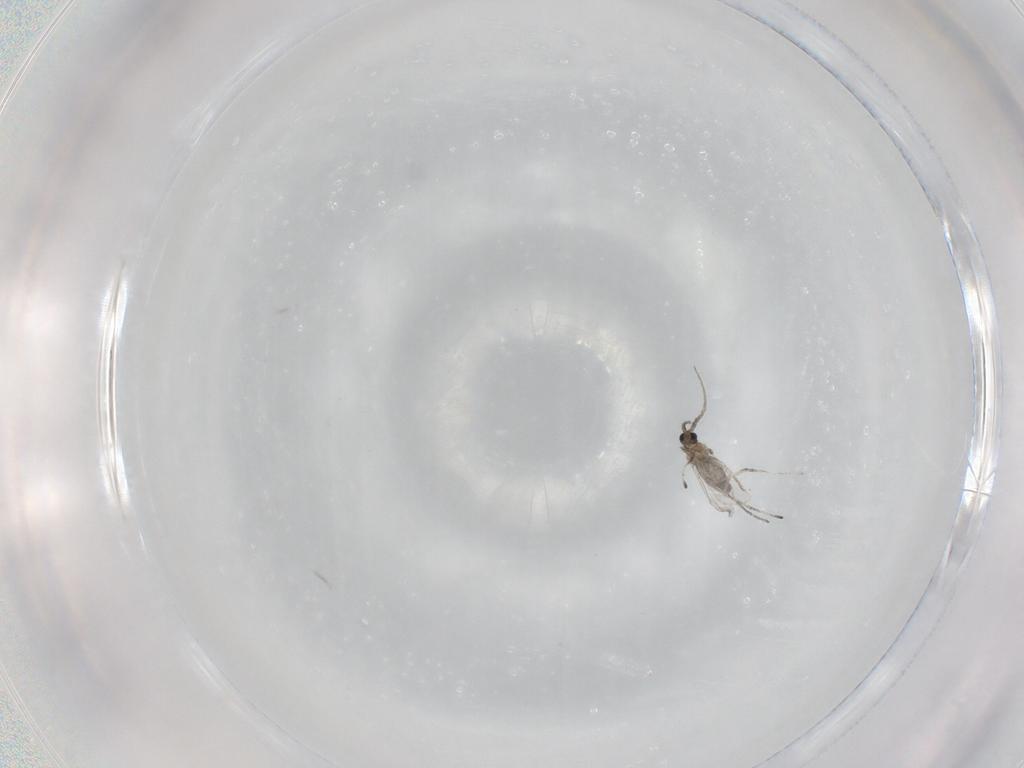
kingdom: Animalia
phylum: Arthropoda
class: Insecta
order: Diptera
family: Cecidomyiidae
